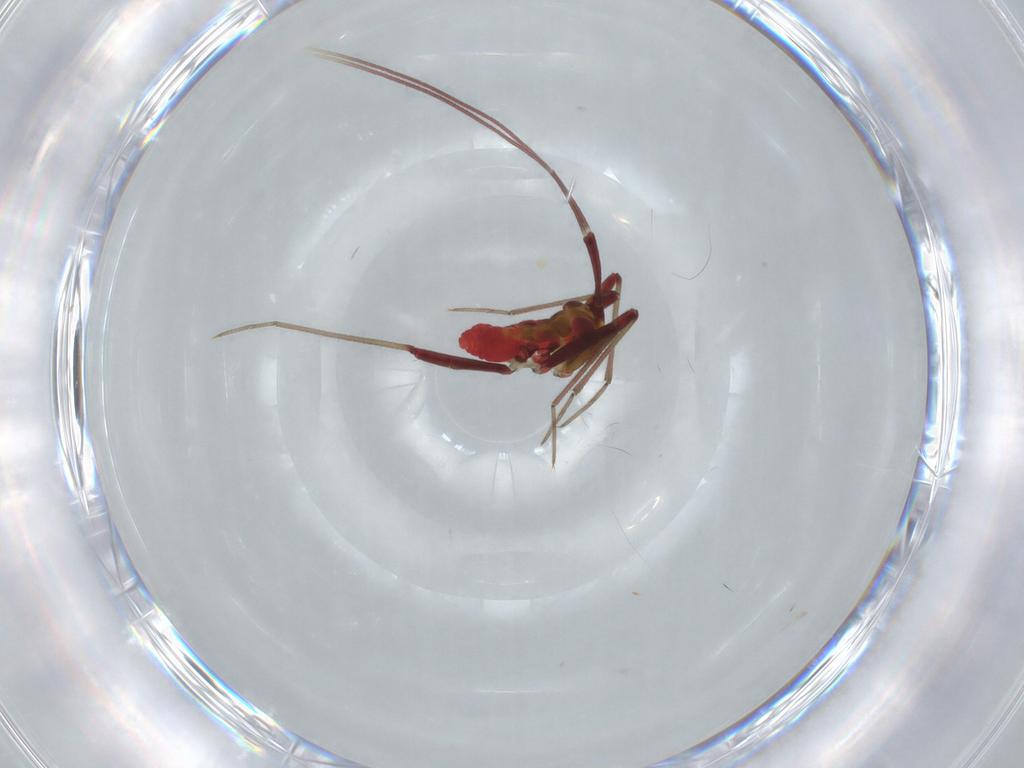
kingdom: Animalia
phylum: Arthropoda
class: Insecta
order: Hemiptera
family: Miridae
